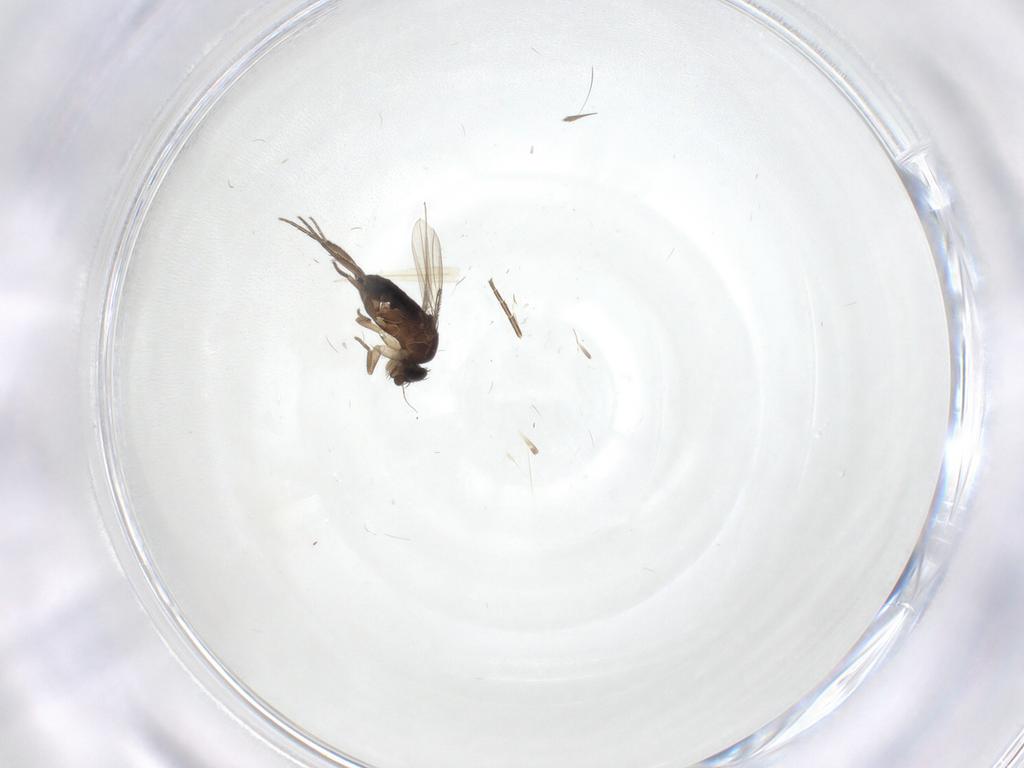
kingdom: Animalia
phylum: Arthropoda
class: Insecta
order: Diptera
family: Phoridae
